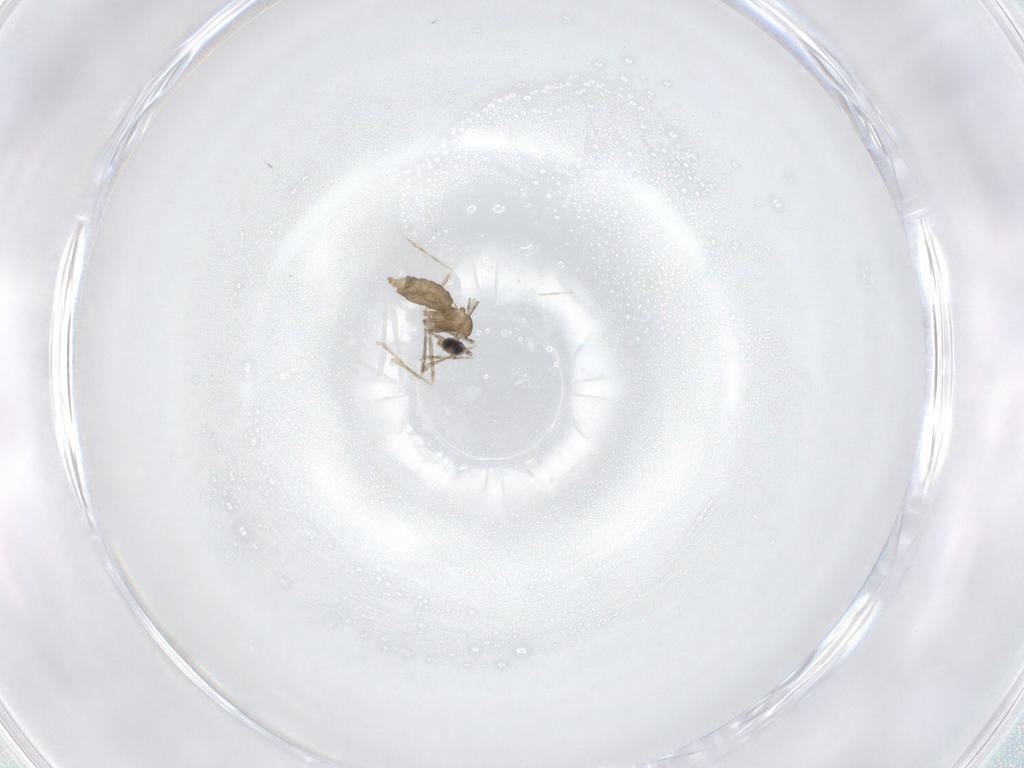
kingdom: Animalia
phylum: Arthropoda
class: Insecta
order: Diptera
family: Cecidomyiidae
